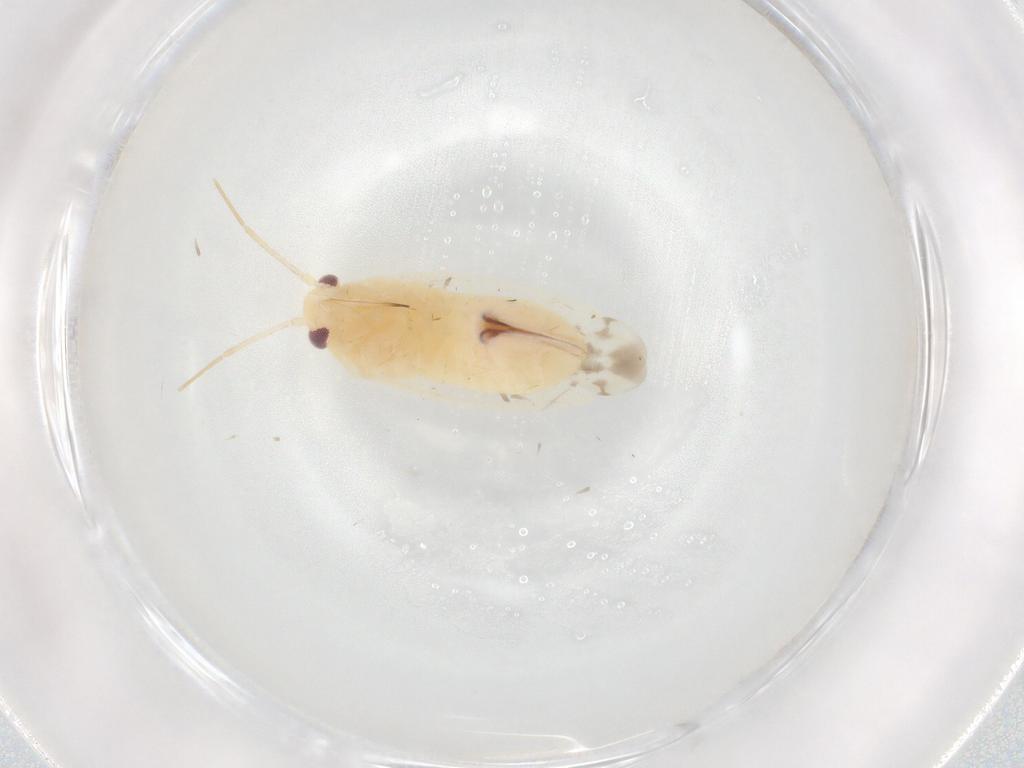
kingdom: Animalia
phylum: Arthropoda
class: Insecta
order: Hemiptera
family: Miridae
